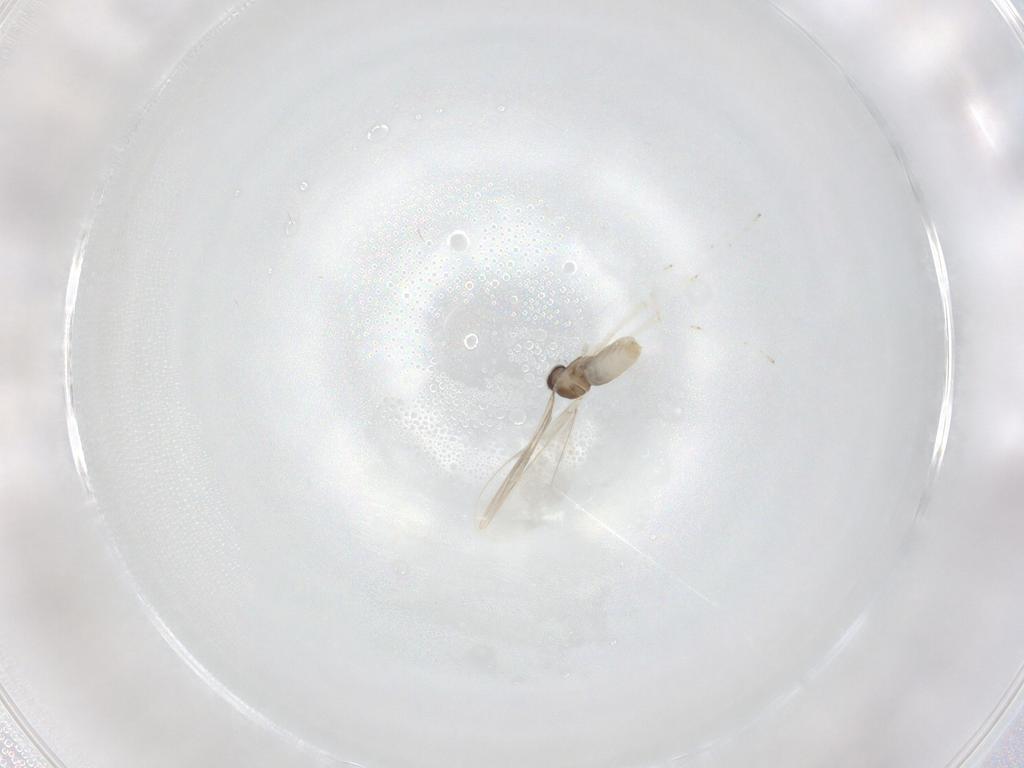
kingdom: Animalia
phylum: Arthropoda
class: Insecta
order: Diptera
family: Cecidomyiidae
